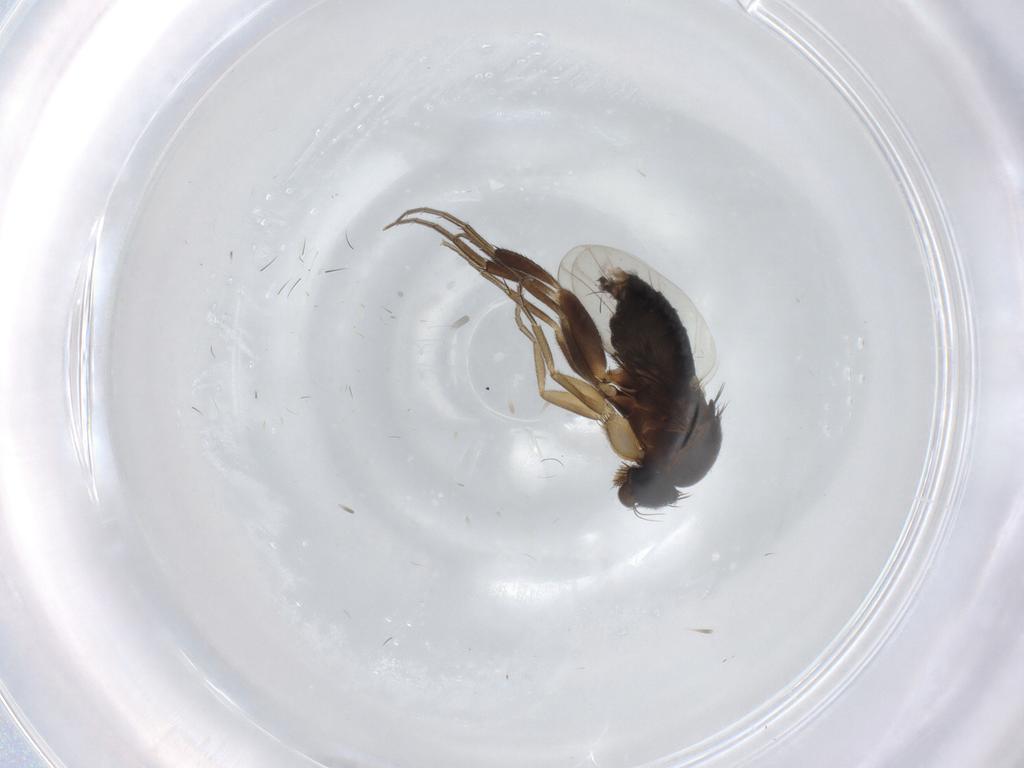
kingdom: Animalia
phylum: Arthropoda
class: Insecta
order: Diptera
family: Phoridae
